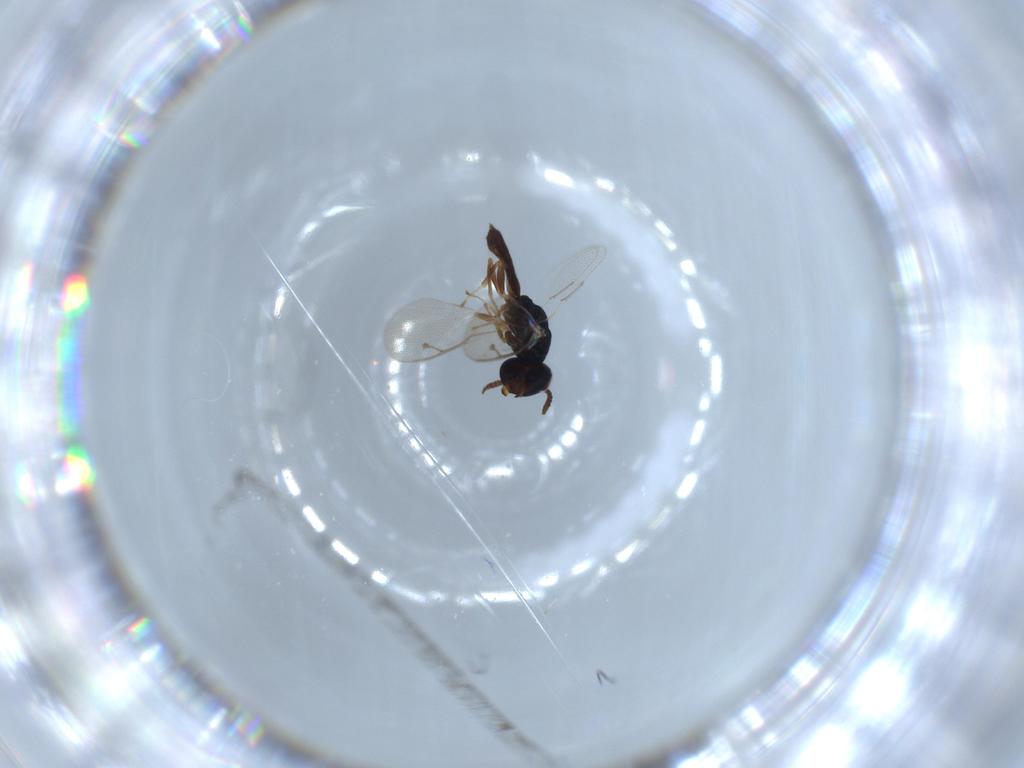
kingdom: Animalia
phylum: Arthropoda
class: Insecta
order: Hymenoptera
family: Pteromalidae
